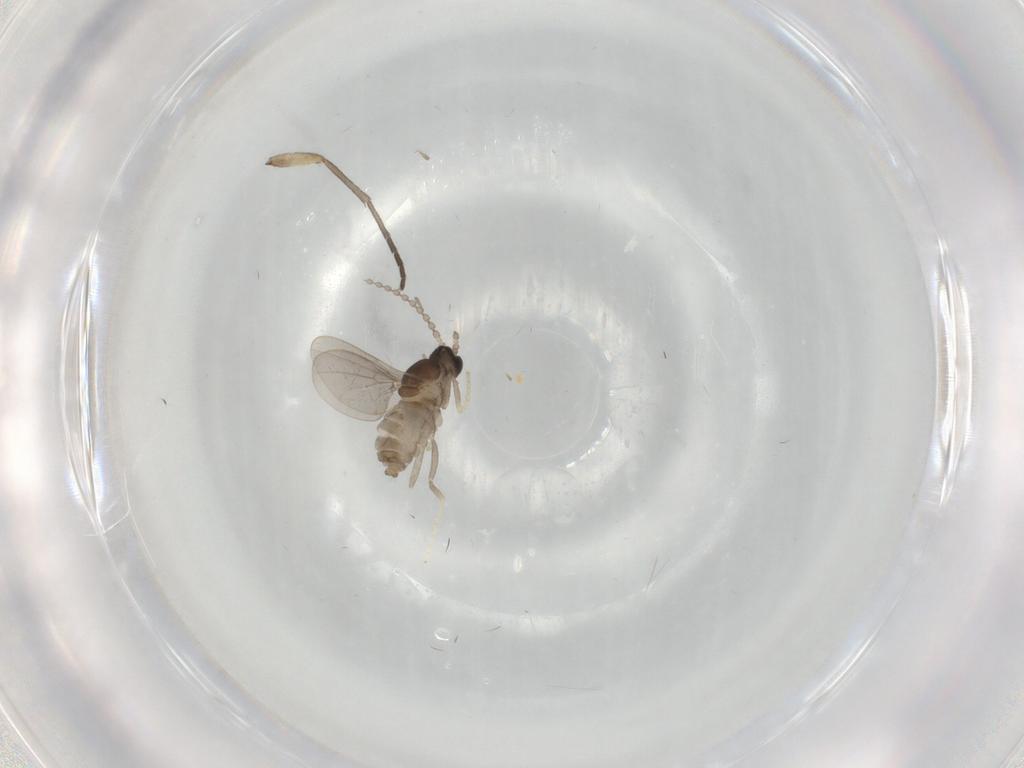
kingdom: Animalia
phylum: Arthropoda
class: Insecta
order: Diptera
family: Cecidomyiidae
